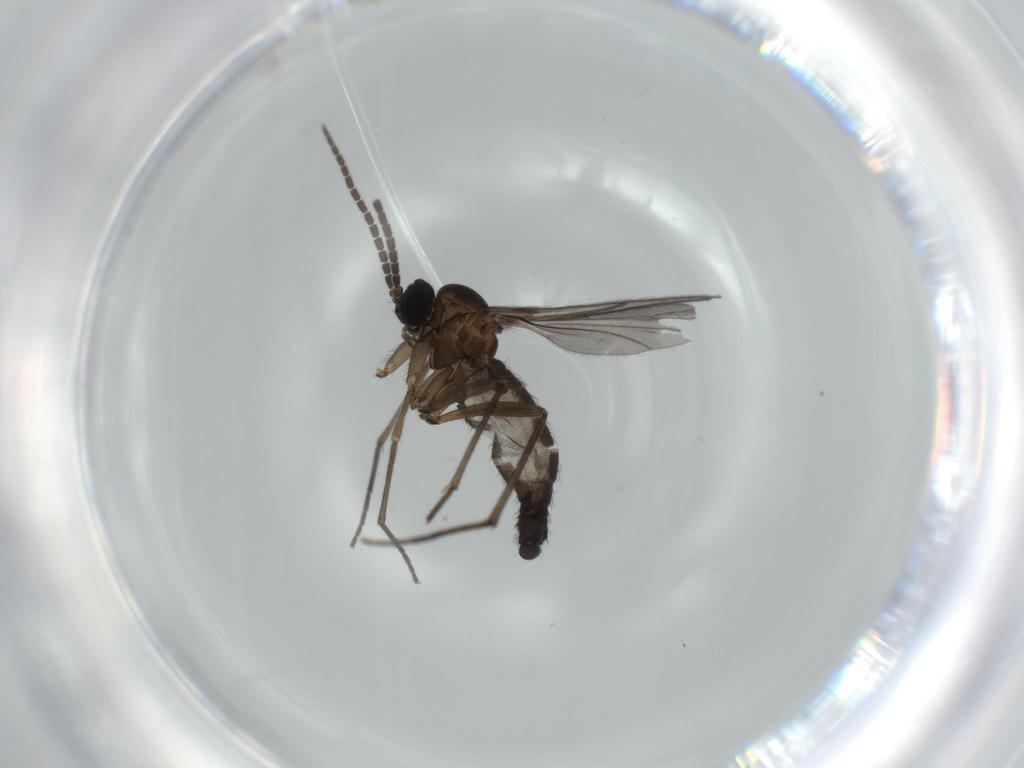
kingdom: Animalia
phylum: Arthropoda
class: Insecta
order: Diptera
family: Sciaridae
